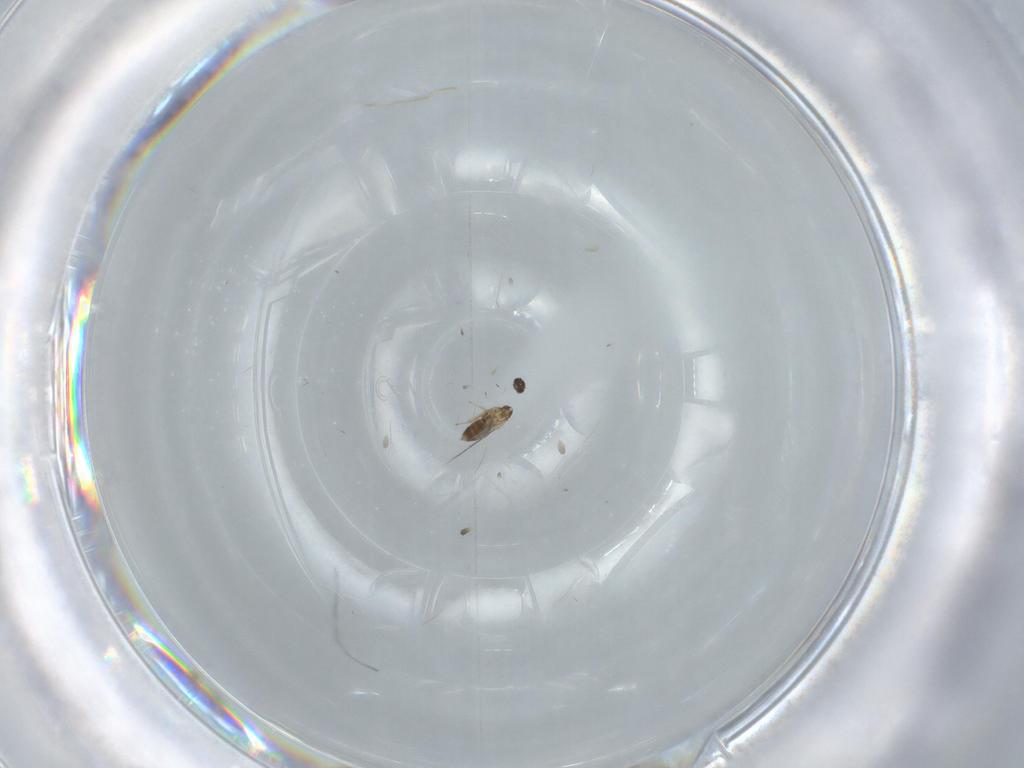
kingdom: Animalia
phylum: Arthropoda
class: Insecta
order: Hymenoptera
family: Mymaridae
